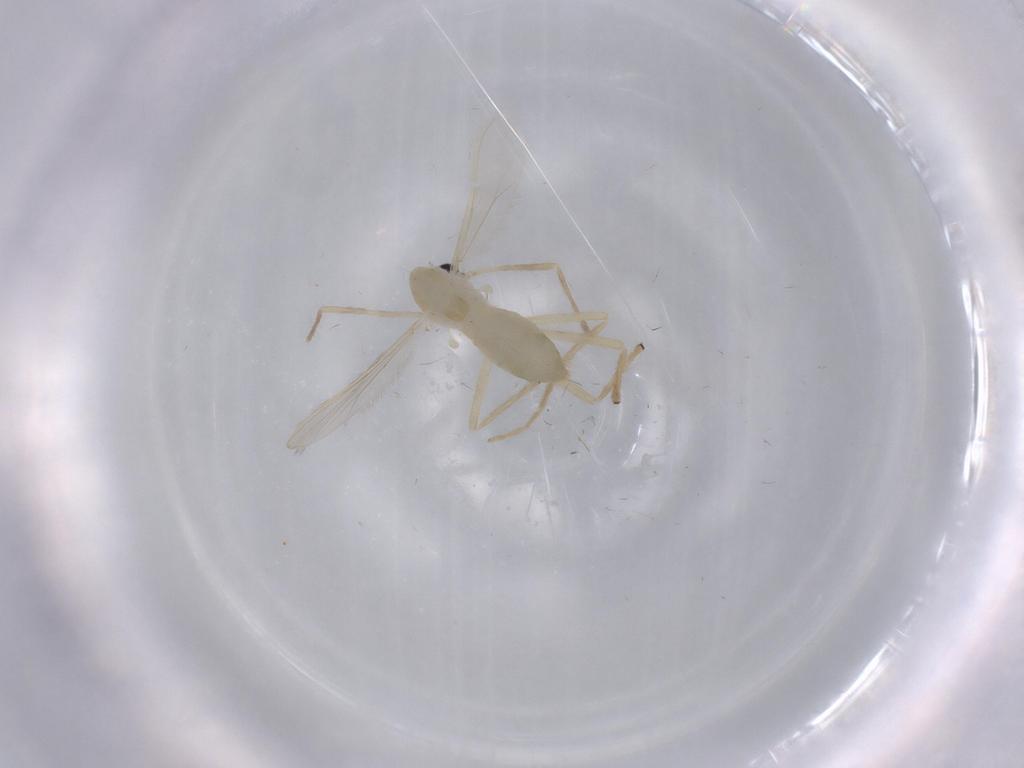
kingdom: Animalia
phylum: Arthropoda
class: Insecta
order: Diptera
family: Chironomidae
